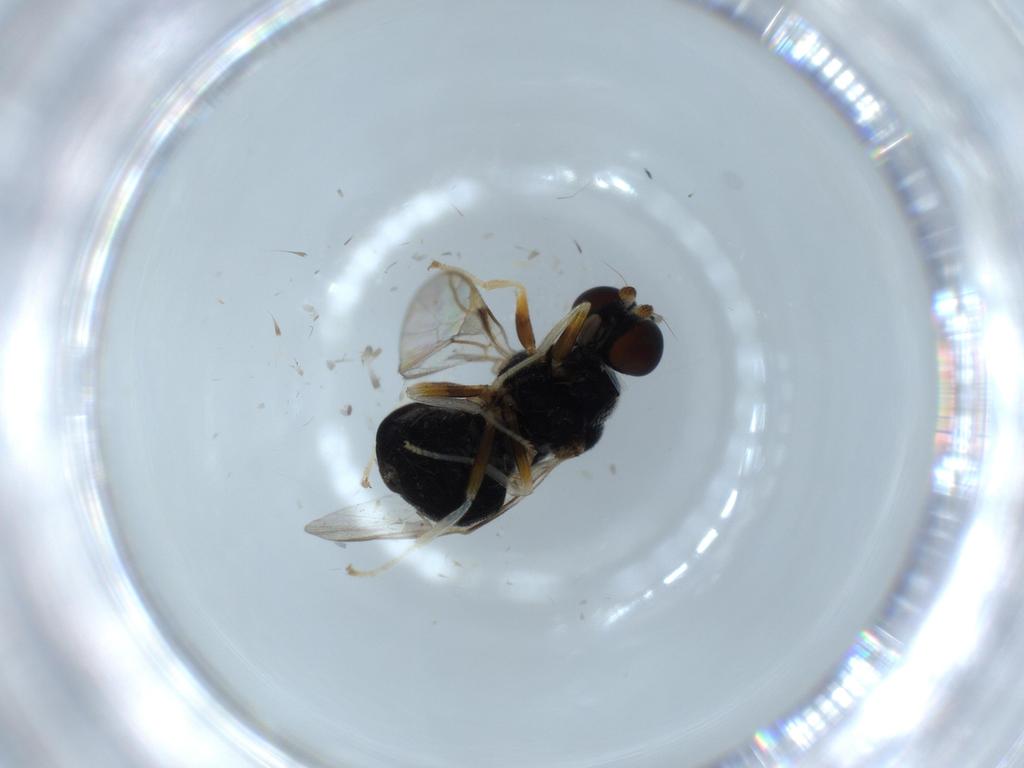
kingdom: Animalia
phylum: Arthropoda
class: Insecta
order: Diptera
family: Stratiomyidae
